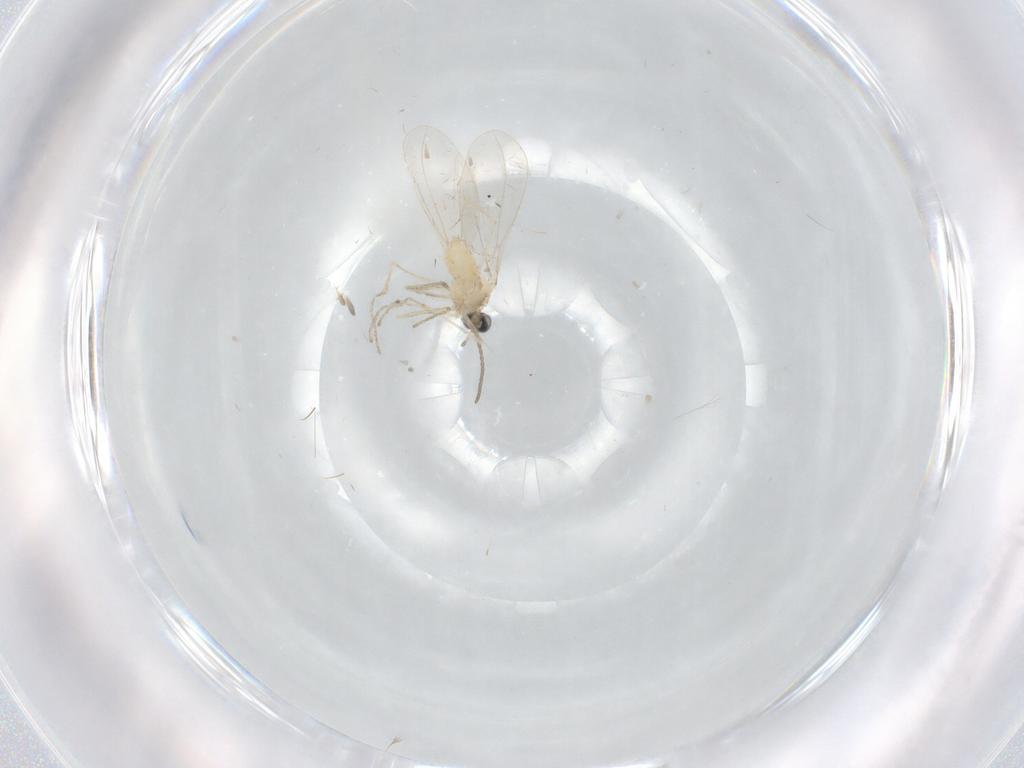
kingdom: Animalia
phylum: Arthropoda
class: Insecta
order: Diptera
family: Cecidomyiidae
